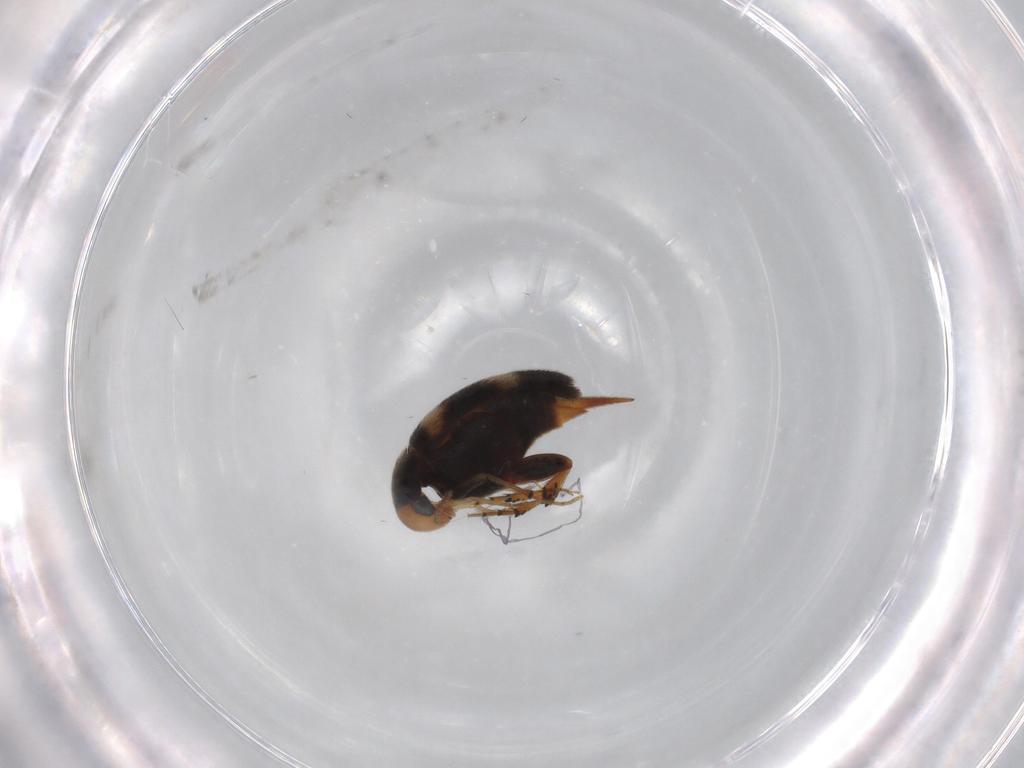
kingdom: Animalia
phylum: Arthropoda
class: Insecta
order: Coleoptera
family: Chrysomelidae
